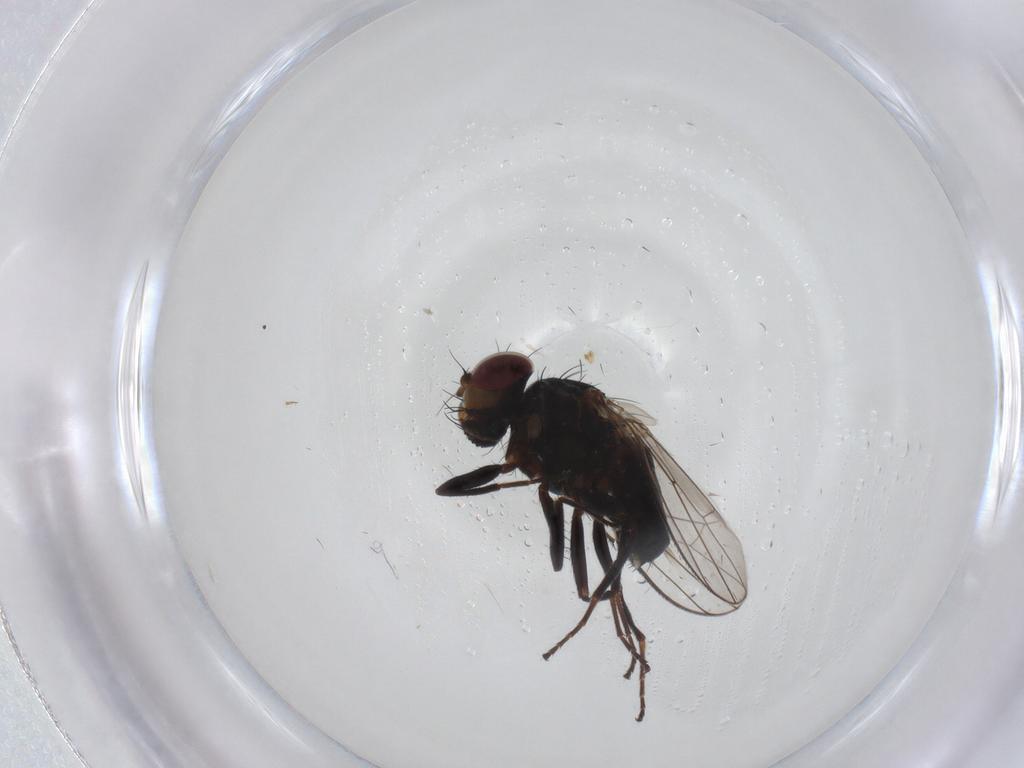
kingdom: Animalia
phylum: Arthropoda
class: Insecta
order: Diptera
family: Carnidae
